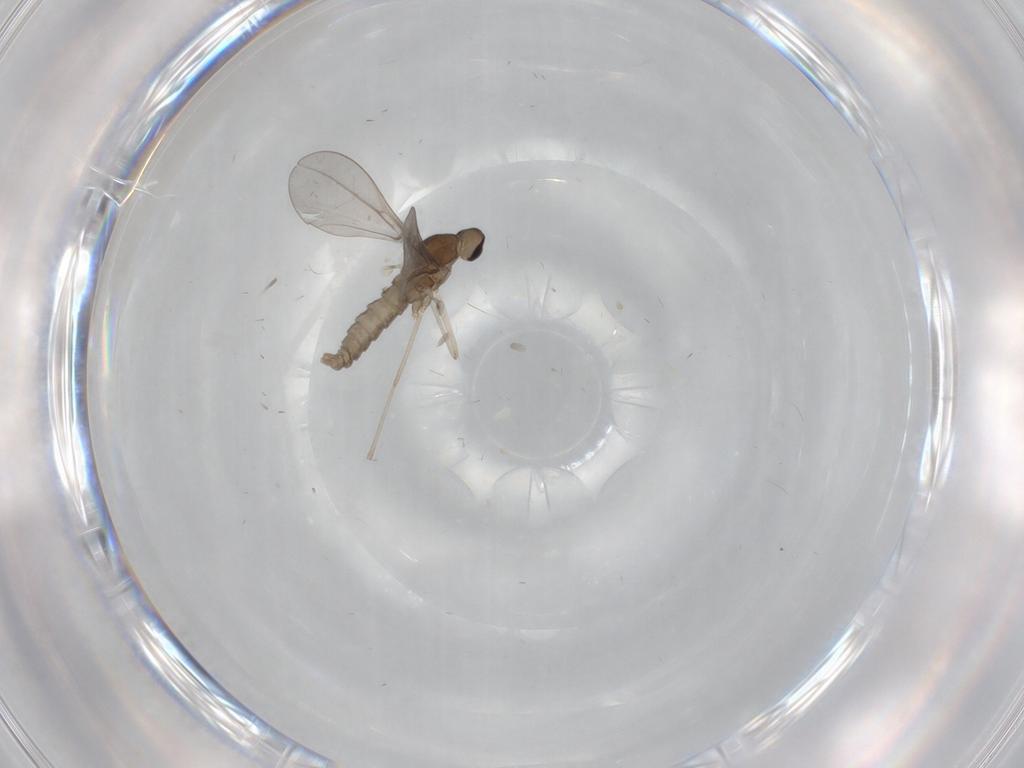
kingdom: Animalia
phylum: Arthropoda
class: Insecta
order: Diptera
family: Cecidomyiidae
